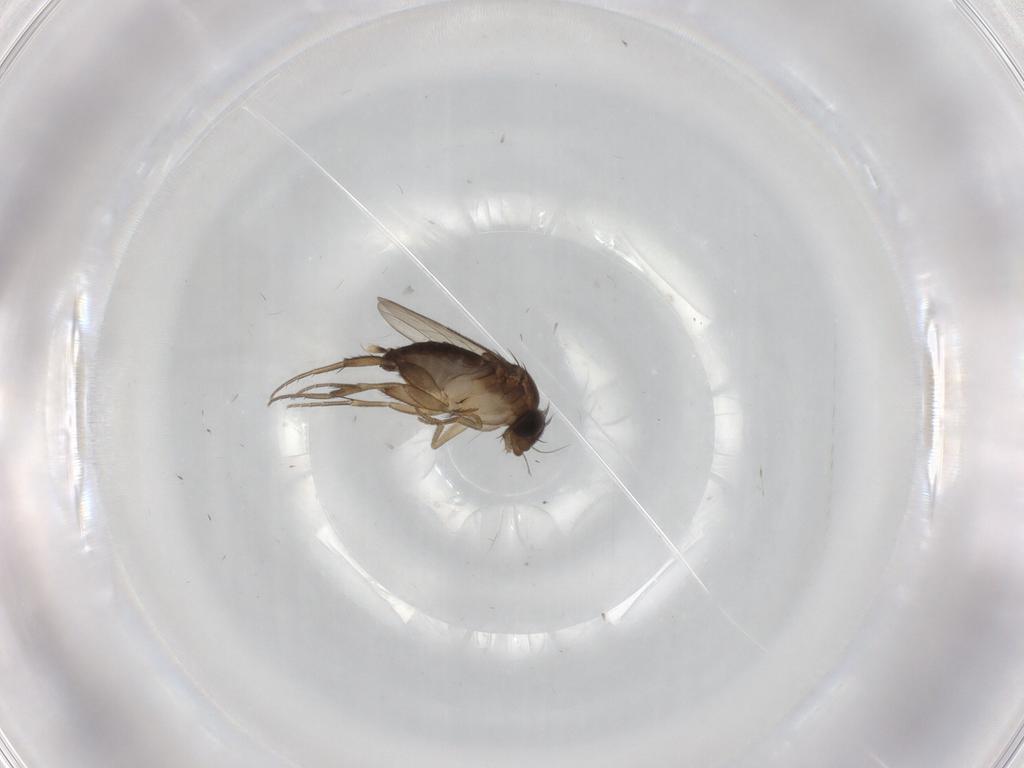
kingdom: Animalia
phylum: Arthropoda
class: Insecta
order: Diptera
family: Phoridae
